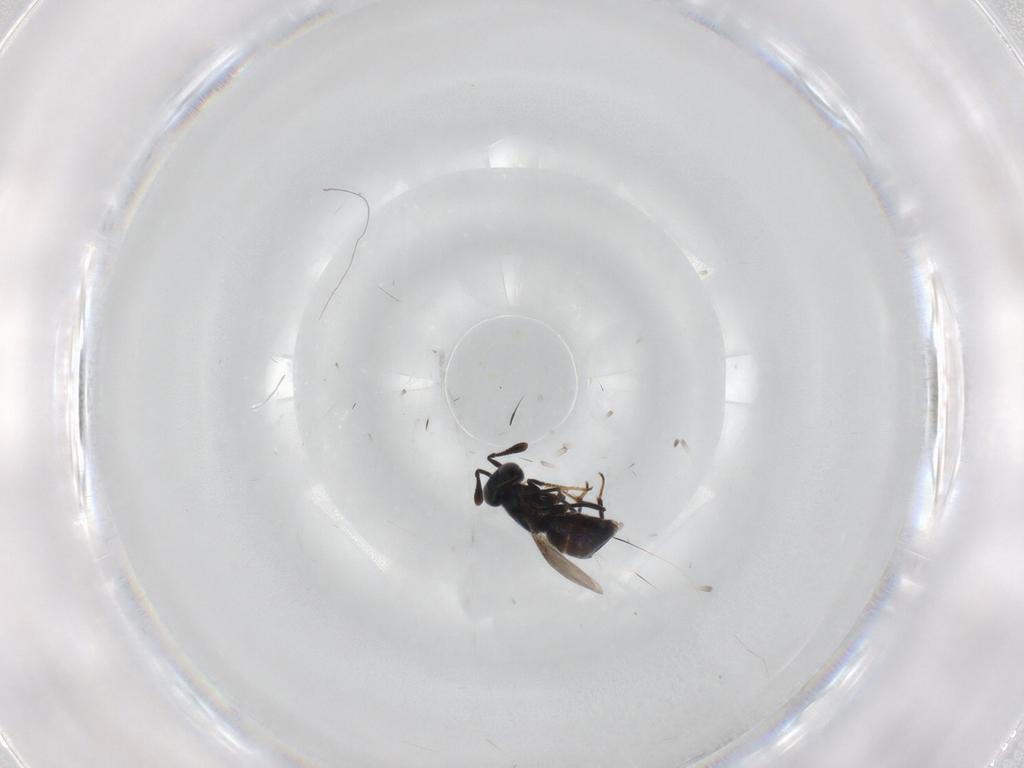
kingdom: Animalia
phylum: Arthropoda
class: Insecta
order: Hymenoptera
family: Encyrtidae
